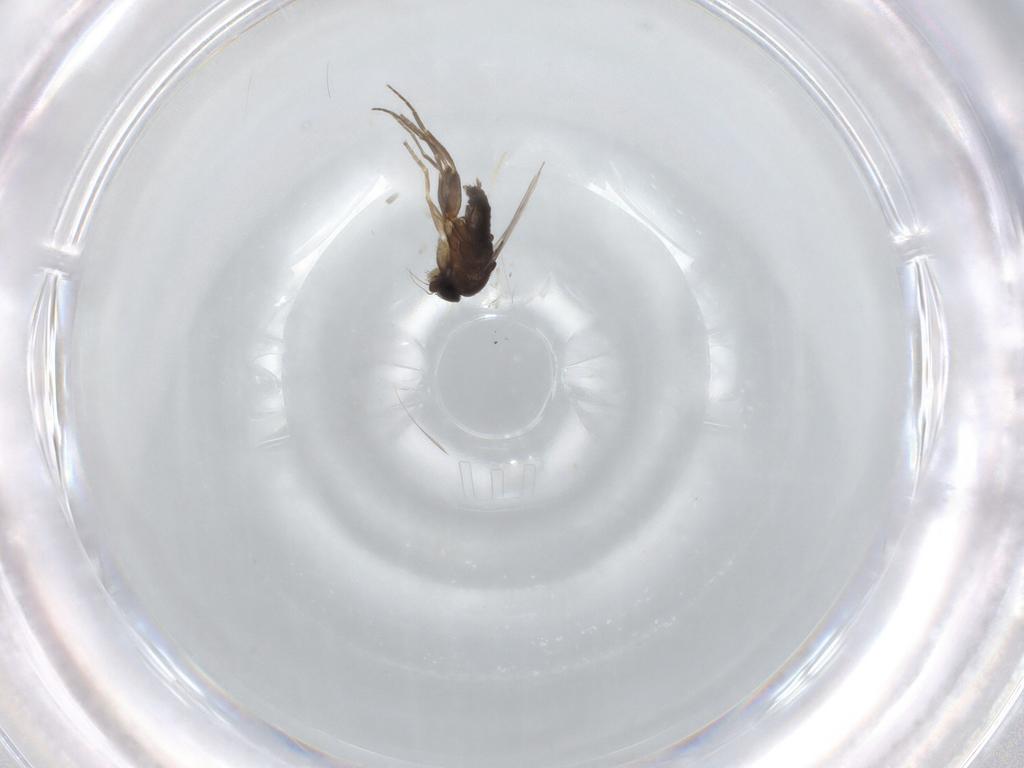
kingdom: Animalia
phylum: Arthropoda
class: Insecta
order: Diptera
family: Phoridae
